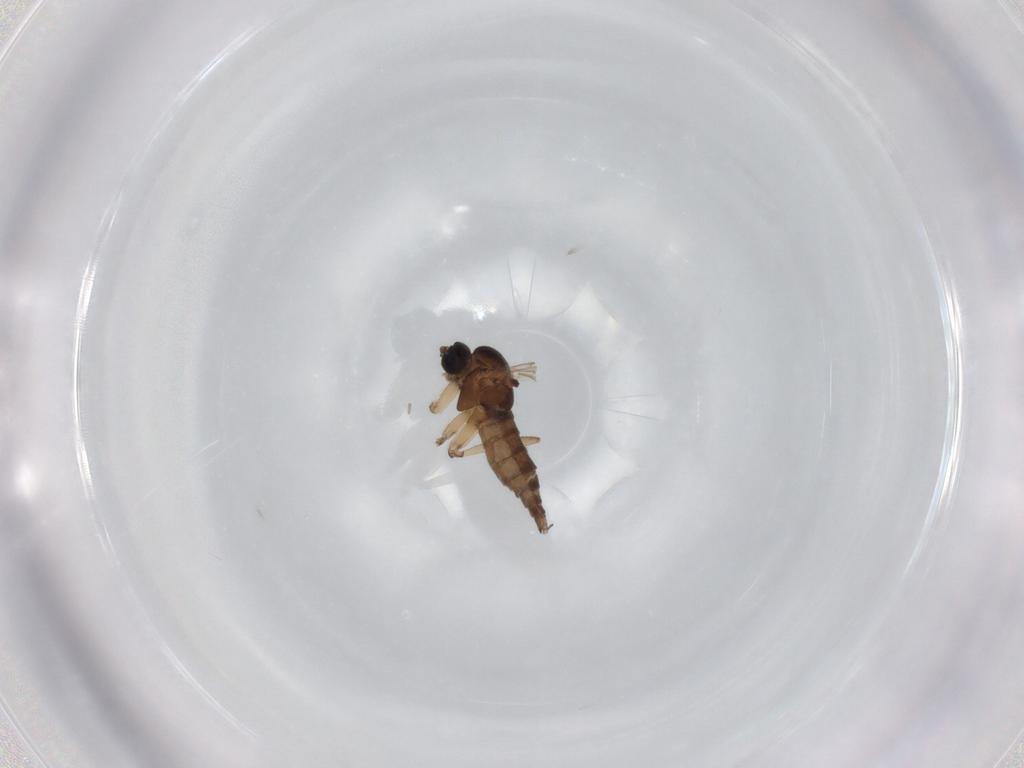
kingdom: Animalia
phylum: Arthropoda
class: Insecta
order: Diptera
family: Sciaridae
